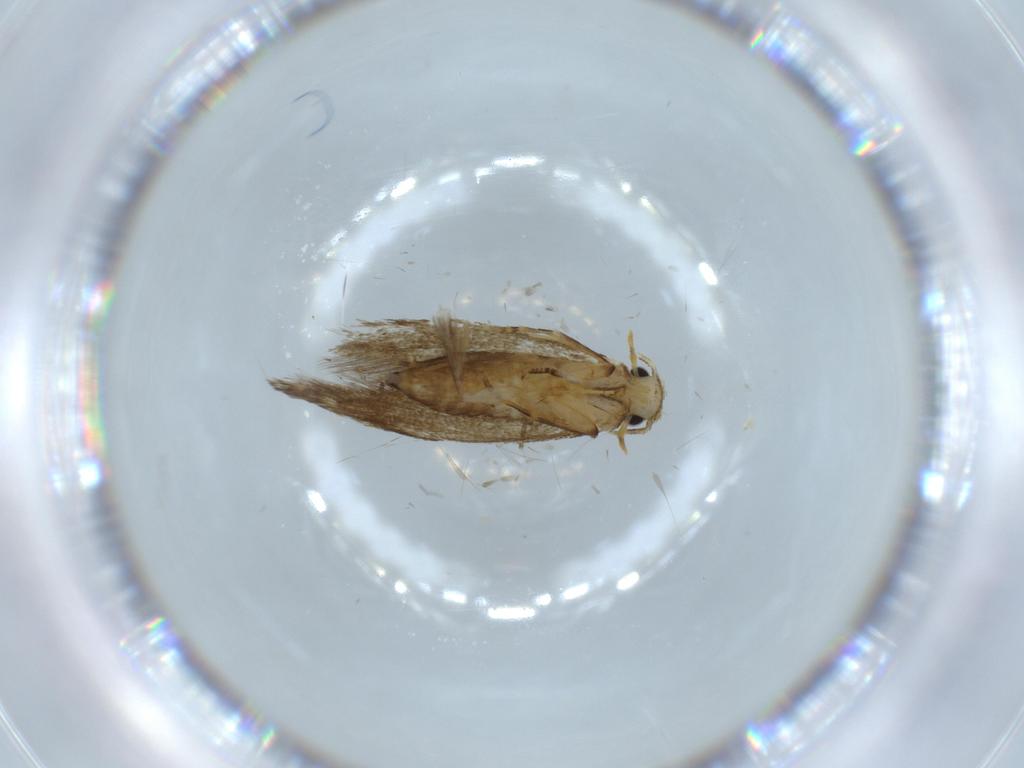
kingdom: Animalia
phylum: Arthropoda
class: Insecta
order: Lepidoptera
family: Tineidae
